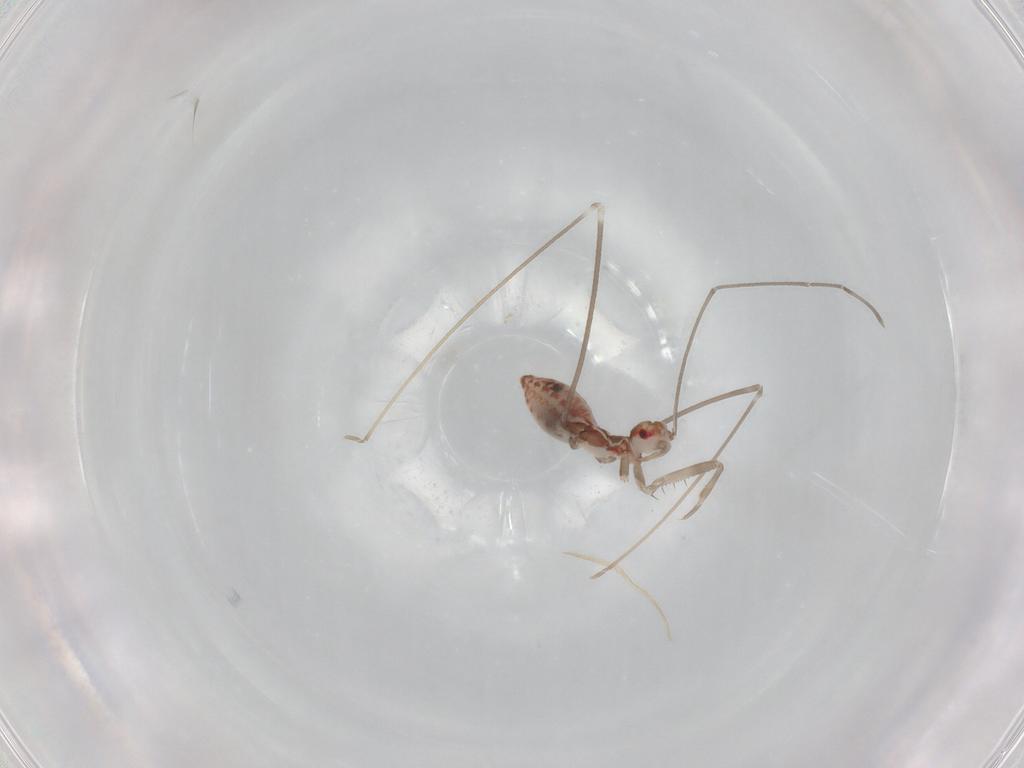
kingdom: Animalia
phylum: Arthropoda
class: Insecta
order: Hemiptera
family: Aleyrodidae
